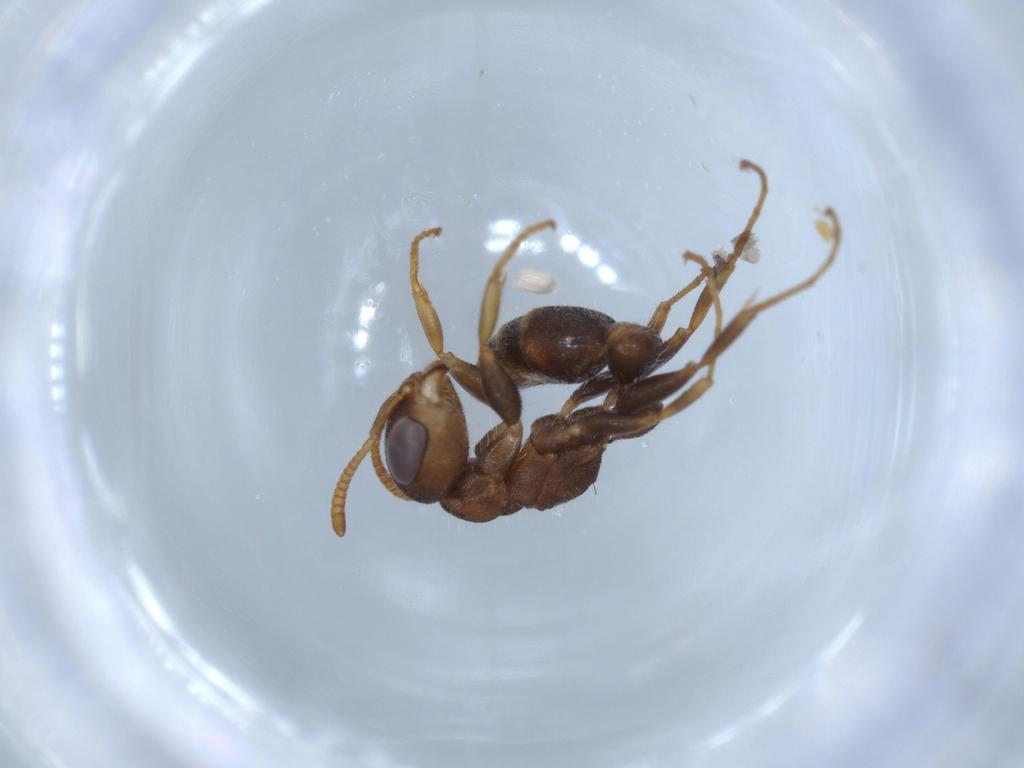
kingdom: Animalia
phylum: Arthropoda
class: Insecta
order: Hymenoptera
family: Formicidae
